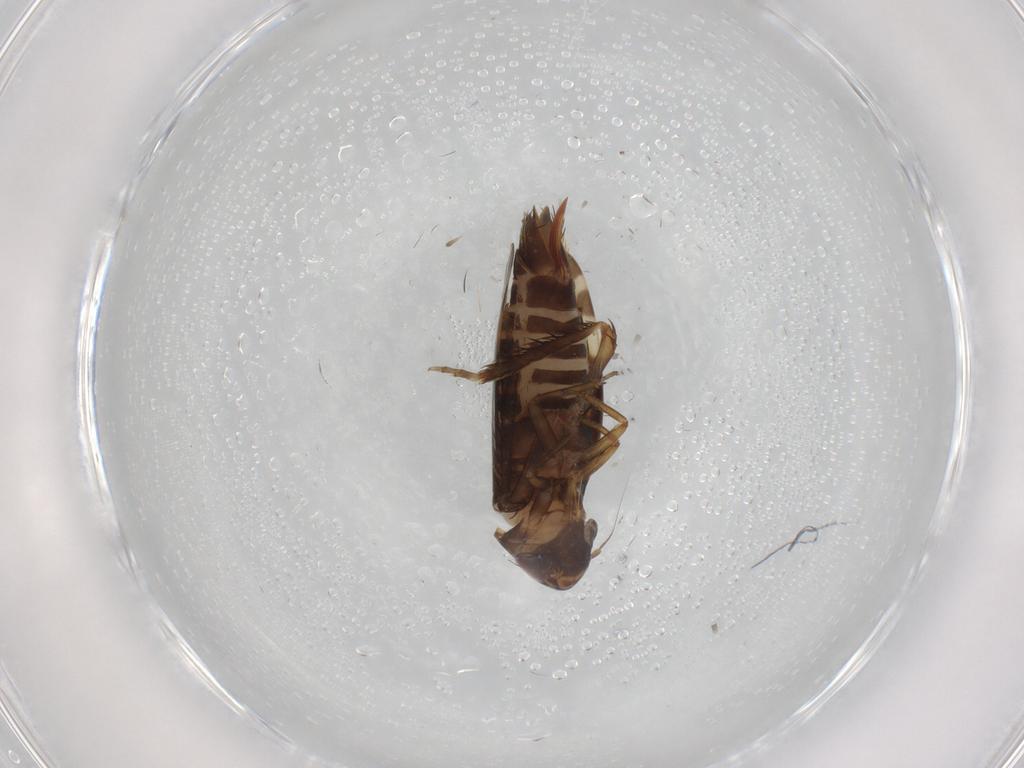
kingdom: Animalia
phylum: Arthropoda
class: Insecta
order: Hemiptera
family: Cicadellidae
